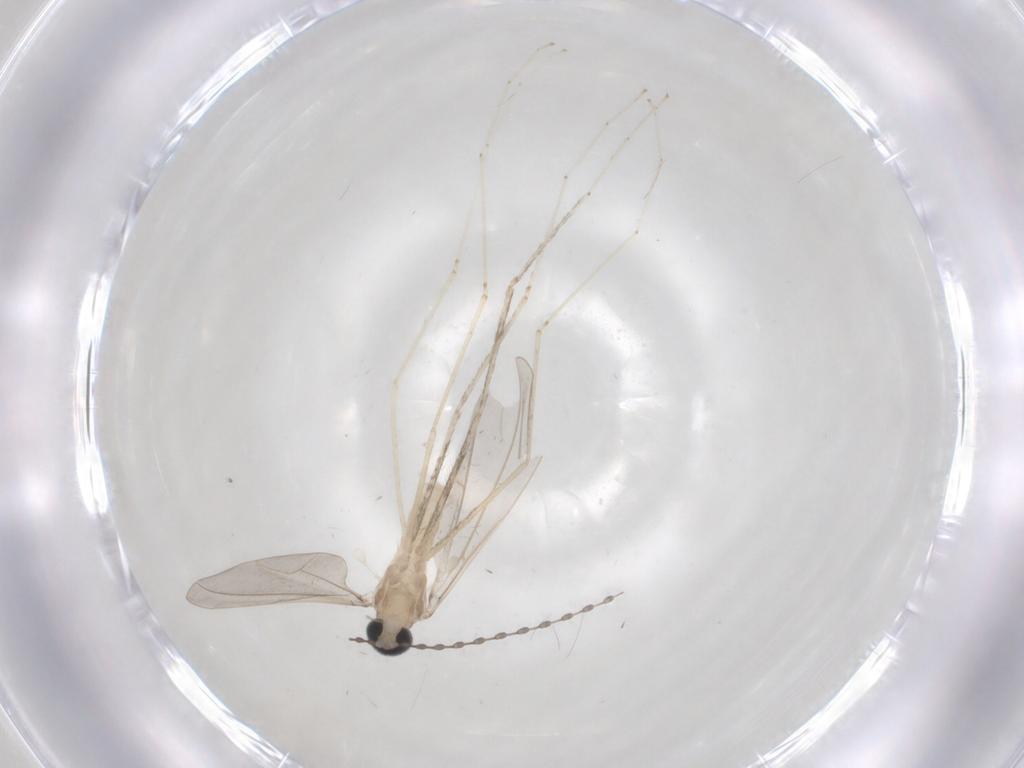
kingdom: Animalia
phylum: Arthropoda
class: Insecta
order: Diptera
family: Cecidomyiidae
